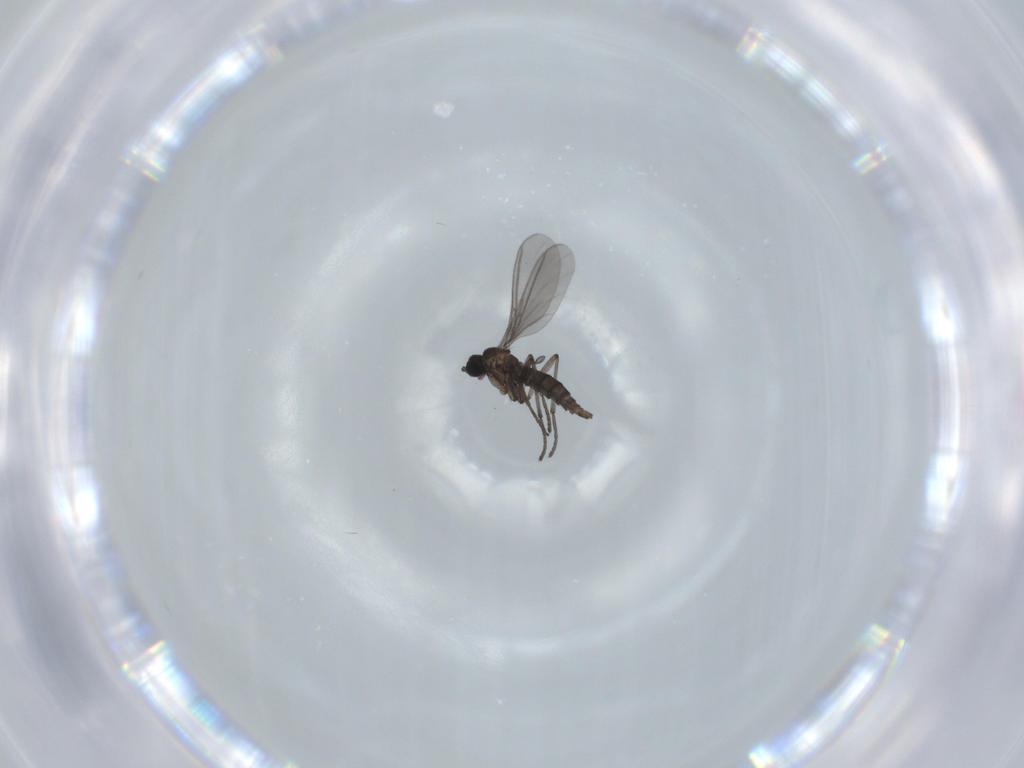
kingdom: Animalia
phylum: Arthropoda
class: Insecta
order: Diptera
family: Sciaridae
